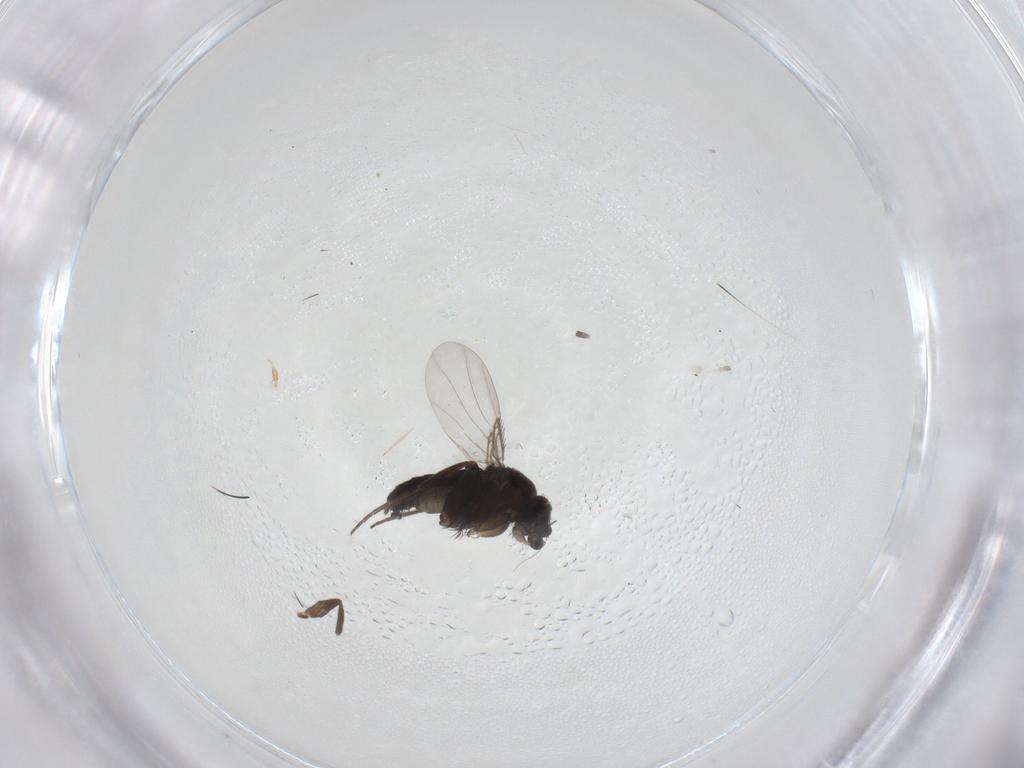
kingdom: Animalia
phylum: Arthropoda
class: Insecta
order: Diptera
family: Sciaridae
